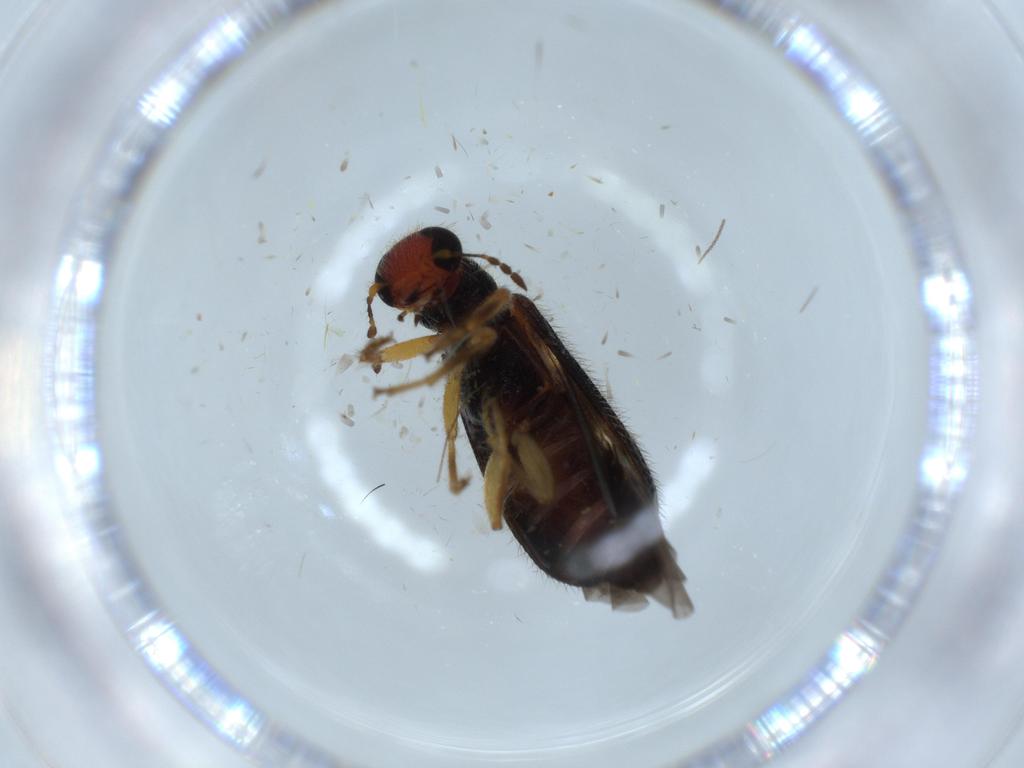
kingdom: Animalia
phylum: Arthropoda
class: Insecta
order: Coleoptera
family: Cleridae
